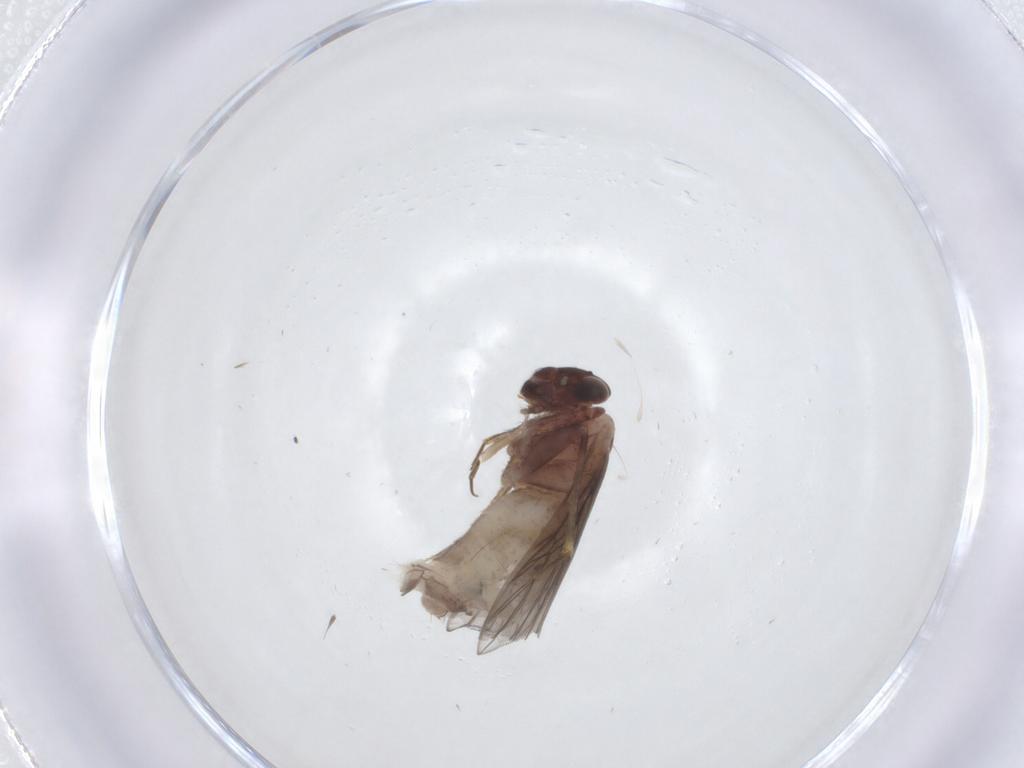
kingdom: Animalia
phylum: Arthropoda
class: Insecta
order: Psocodea
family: Lepidopsocidae
